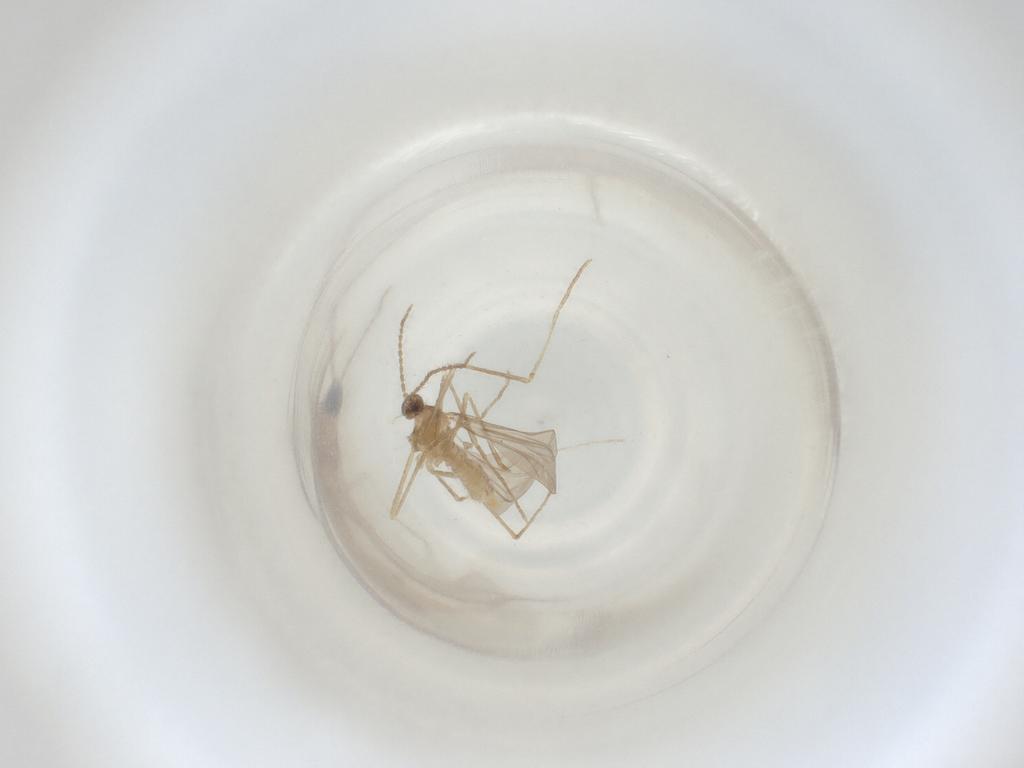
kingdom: Animalia
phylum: Arthropoda
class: Insecta
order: Diptera
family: Cecidomyiidae
